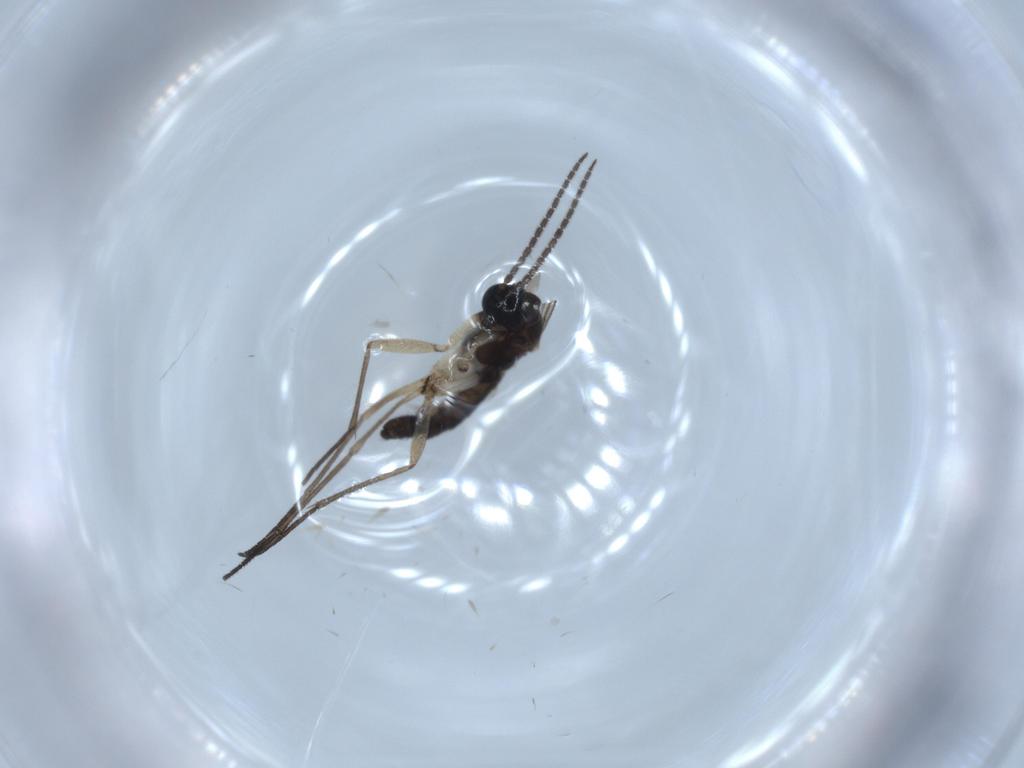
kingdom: Animalia
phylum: Arthropoda
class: Insecta
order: Diptera
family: Sciaridae
